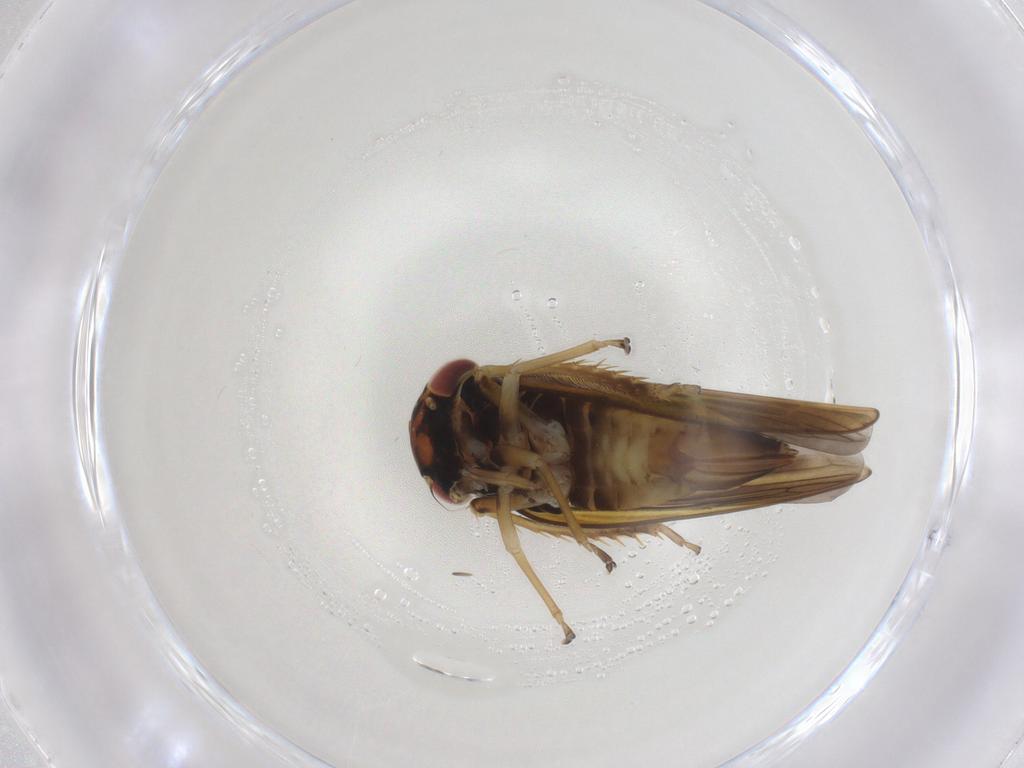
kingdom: Animalia
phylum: Arthropoda
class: Insecta
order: Hemiptera
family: Cicadellidae
